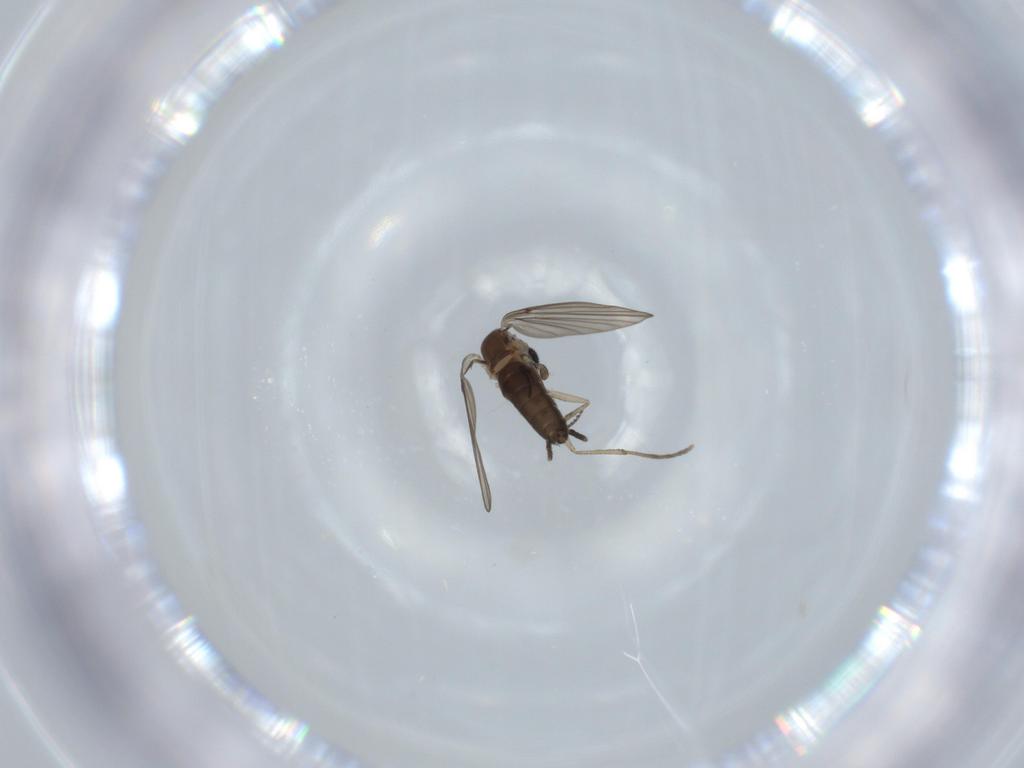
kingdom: Animalia
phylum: Arthropoda
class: Insecta
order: Diptera
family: Psychodidae
